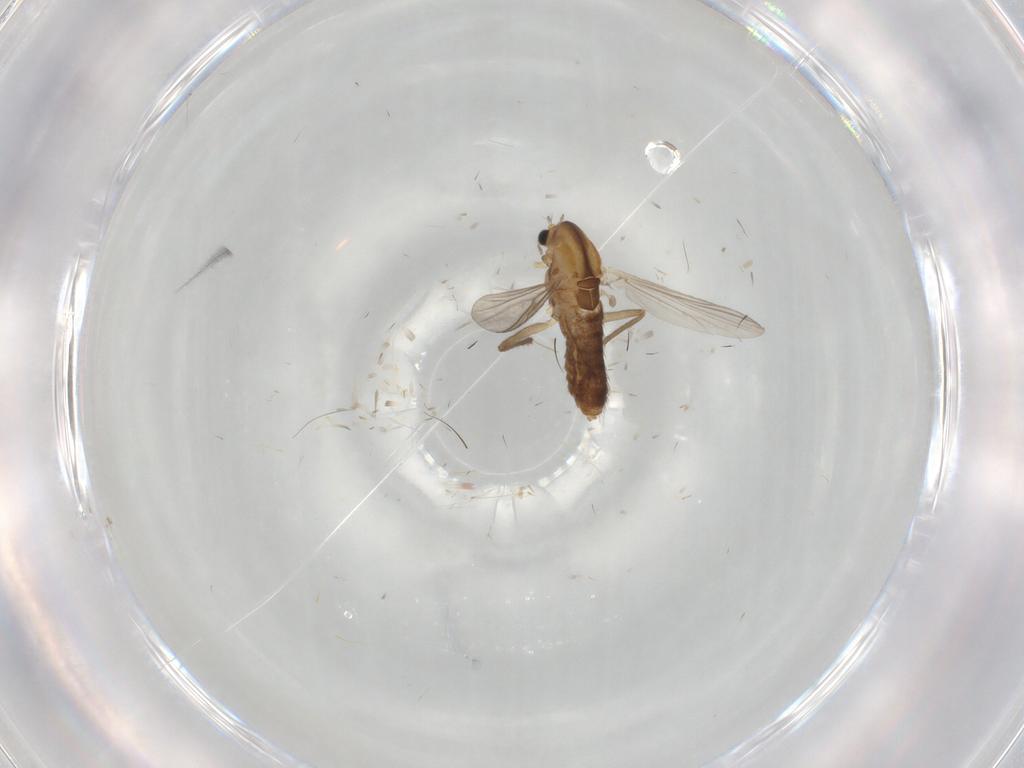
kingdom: Animalia
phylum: Arthropoda
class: Insecta
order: Diptera
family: Chironomidae
